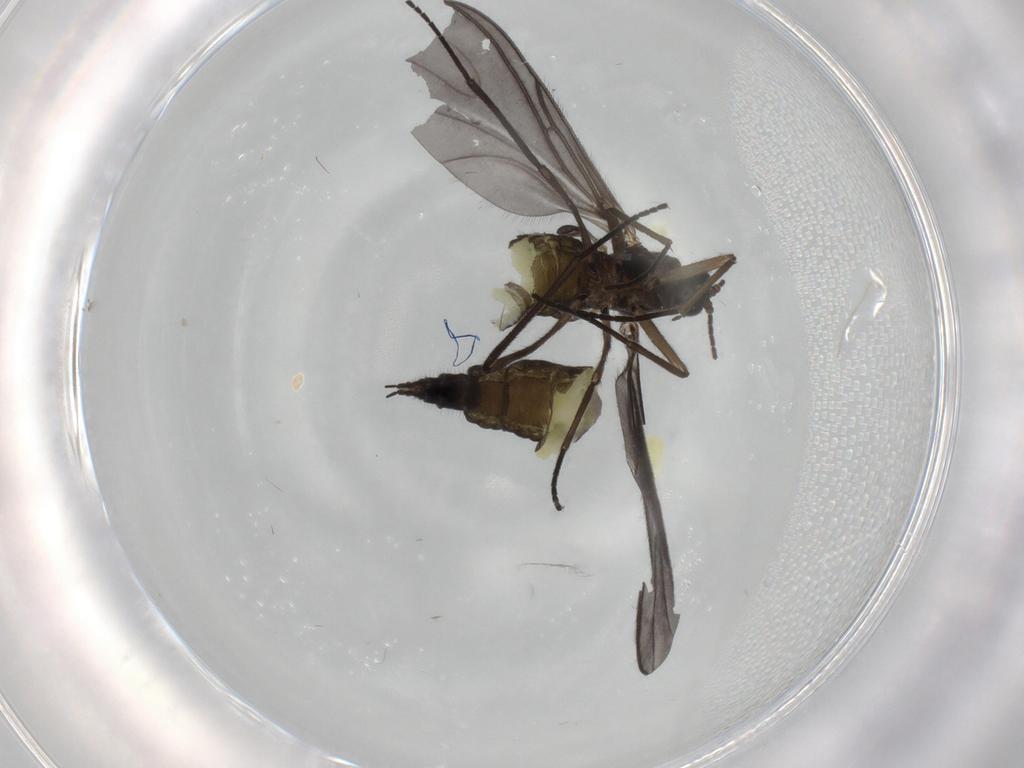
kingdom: Animalia
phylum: Arthropoda
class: Insecta
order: Diptera
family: Sciaridae
